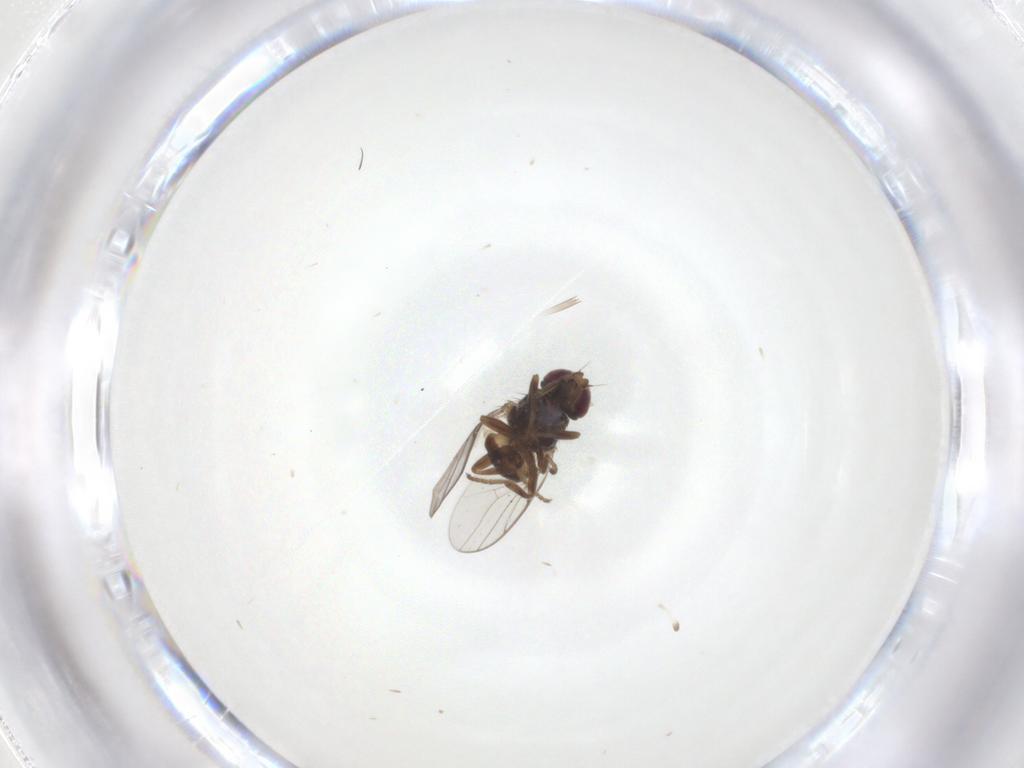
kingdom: Animalia
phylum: Arthropoda
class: Insecta
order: Diptera
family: Chloropidae
